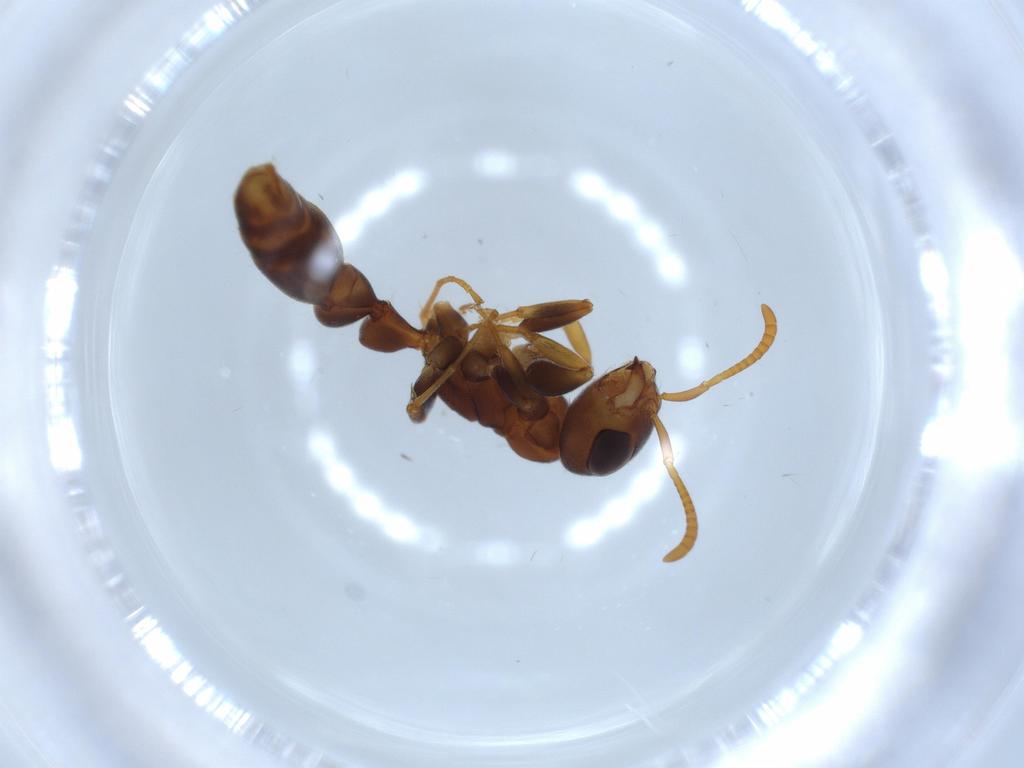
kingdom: Animalia
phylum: Arthropoda
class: Insecta
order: Hymenoptera
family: Formicidae
